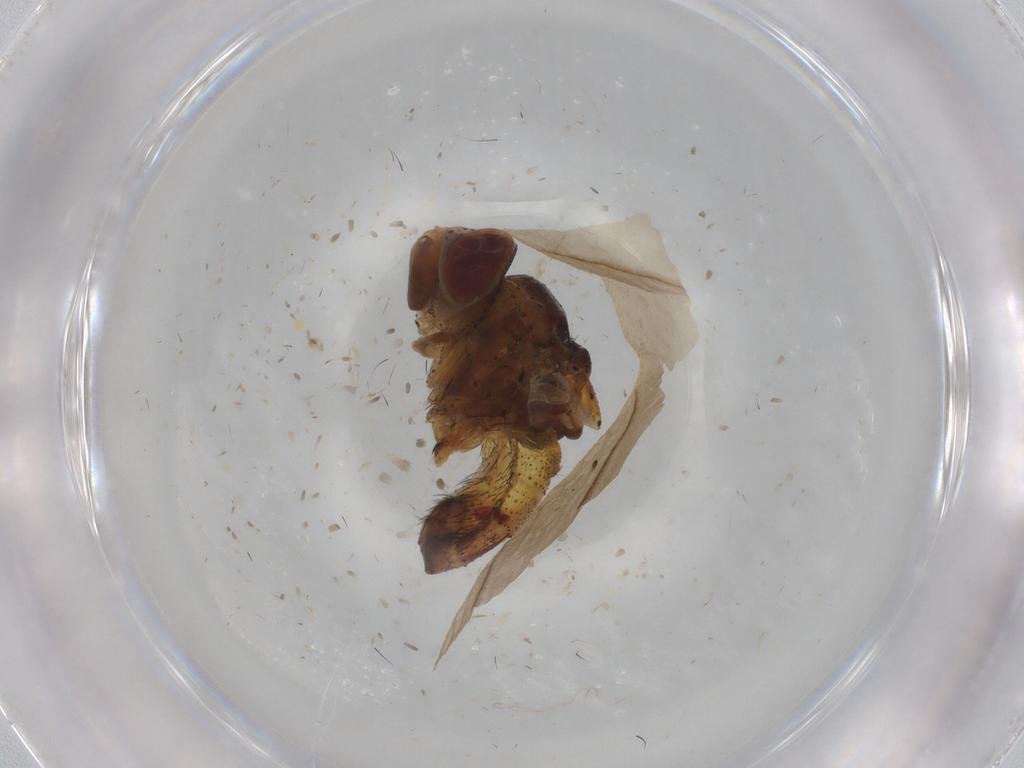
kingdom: Animalia
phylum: Arthropoda
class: Insecta
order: Diptera
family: Muscidae
